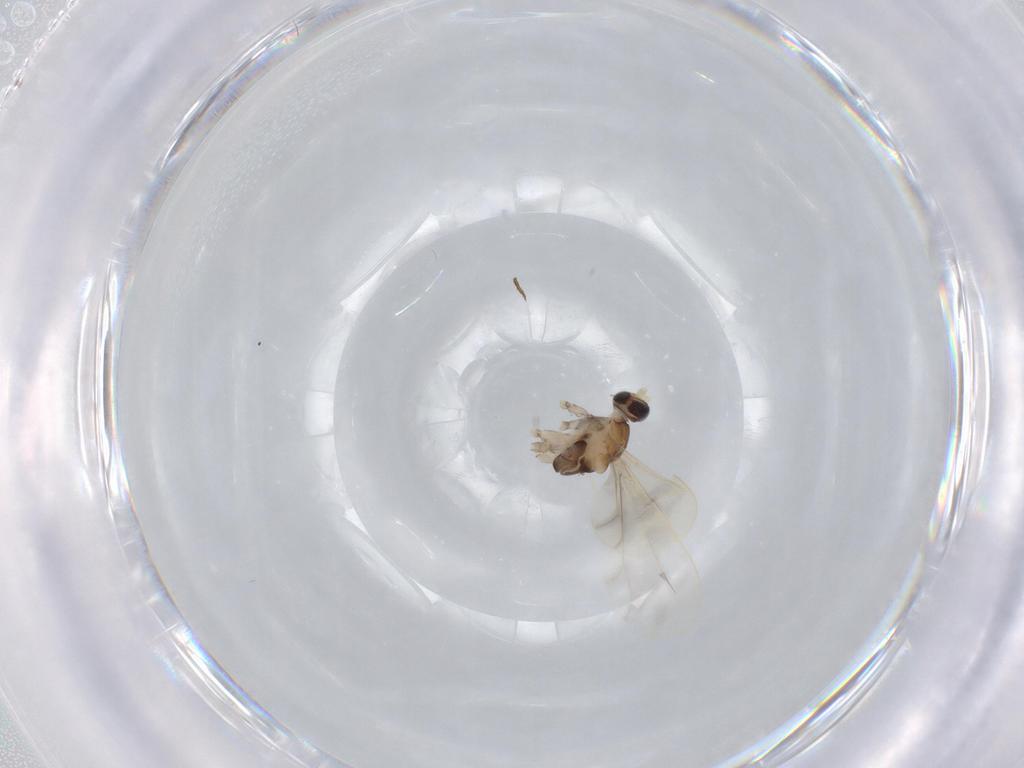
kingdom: Animalia
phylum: Arthropoda
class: Insecta
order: Diptera
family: Cecidomyiidae
